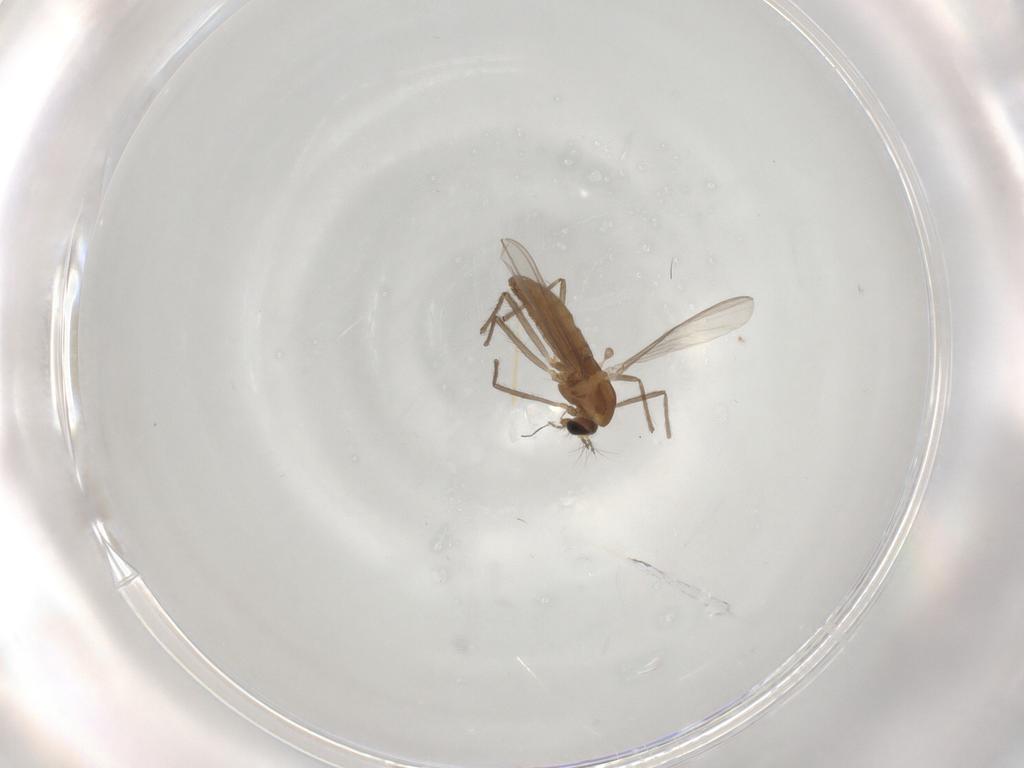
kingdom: Animalia
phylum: Arthropoda
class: Insecta
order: Diptera
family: Chironomidae
